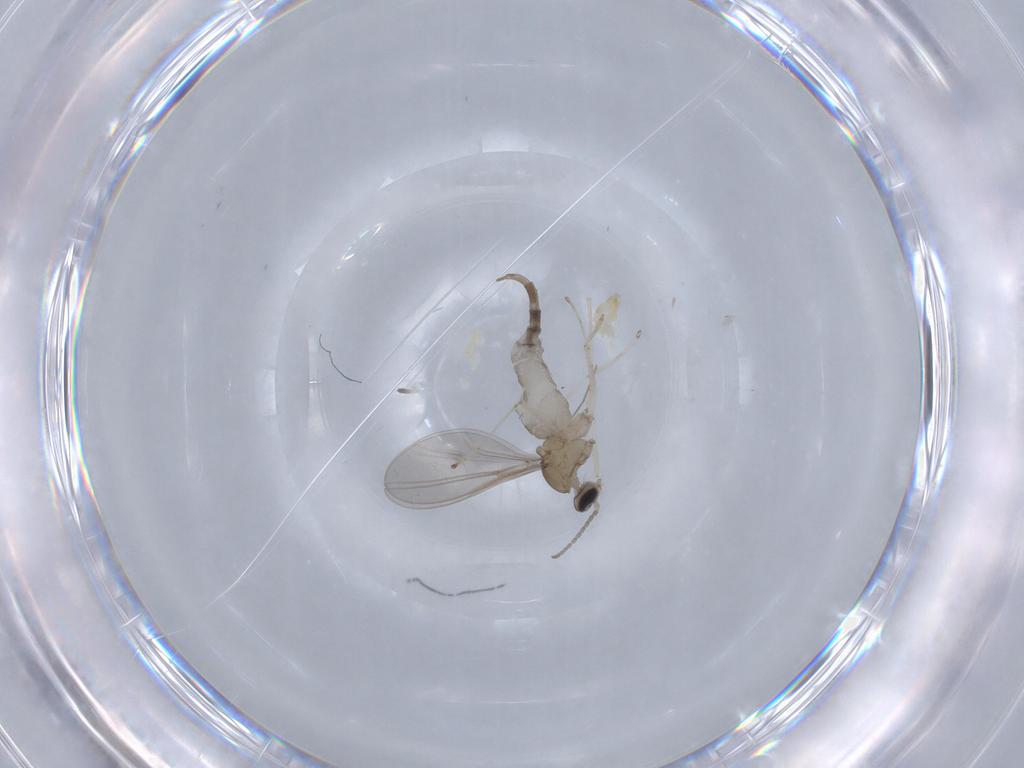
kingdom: Animalia
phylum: Arthropoda
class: Insecta
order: Diptera
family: Cecidomyiidae
